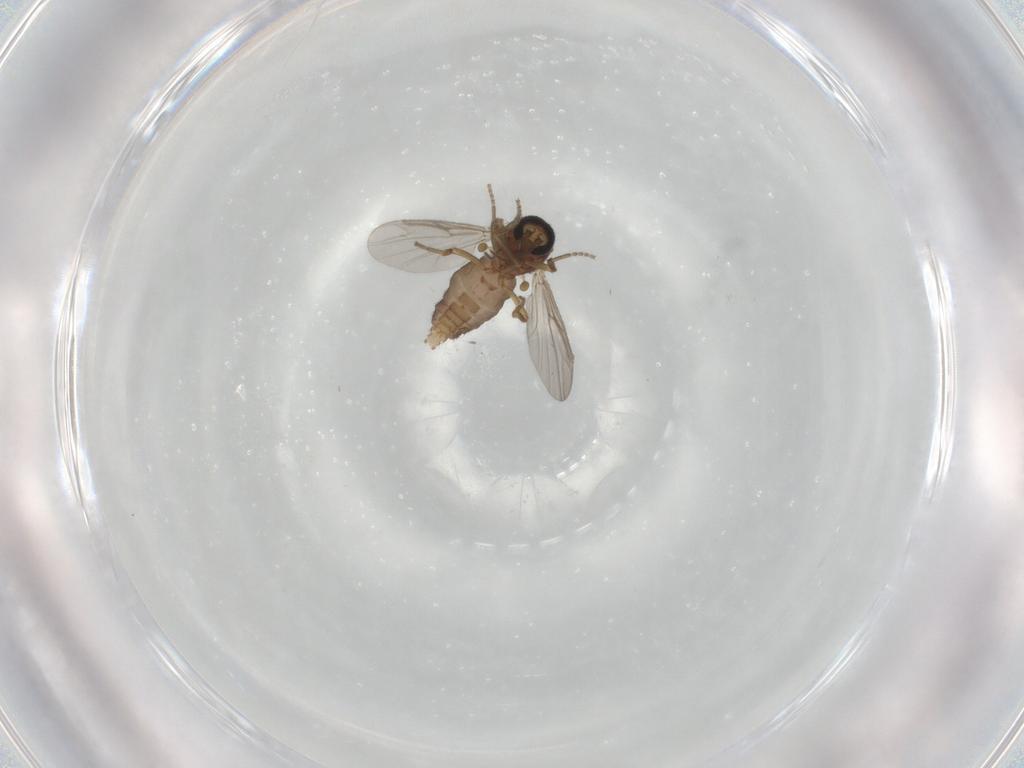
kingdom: Animalia
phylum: Arthropoda
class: Insecta
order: Diptera
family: Ceratopogonidae
